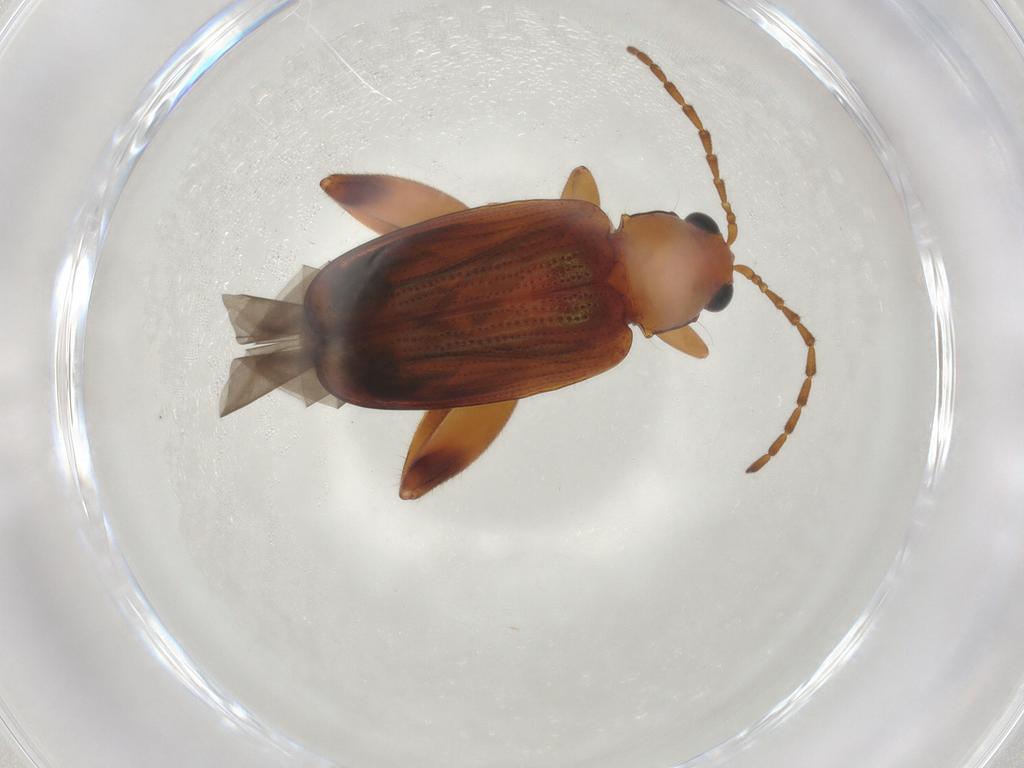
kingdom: Animalia
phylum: Arthropoda
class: Insecta
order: Coleoptera
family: Chrysomelidae
